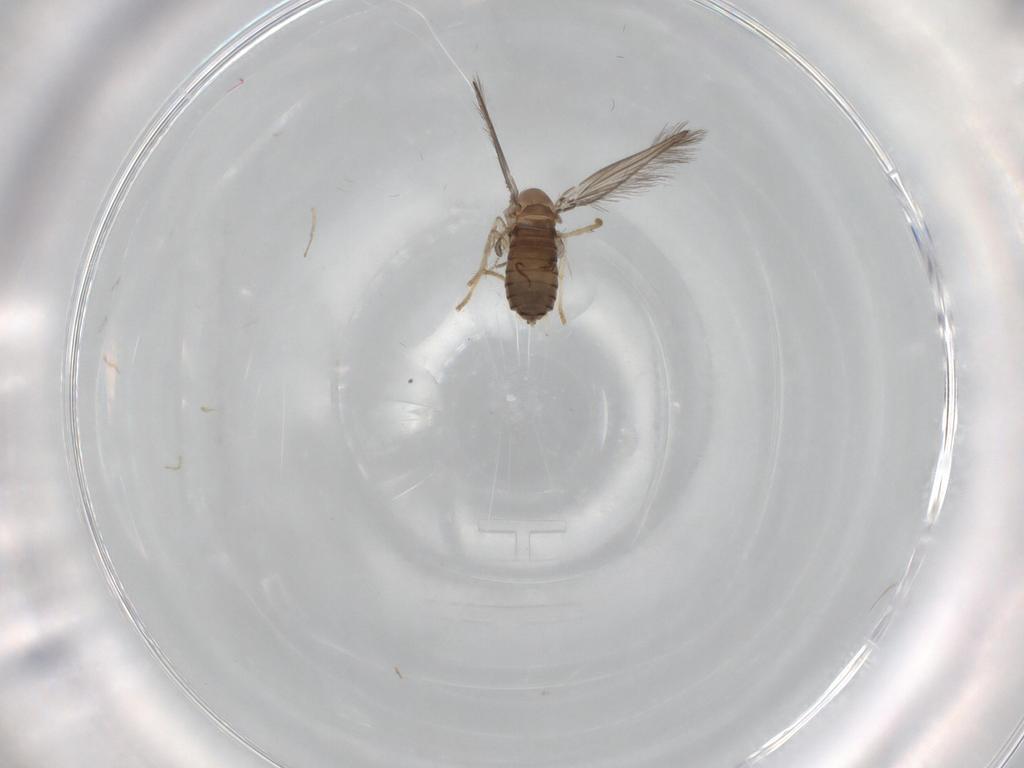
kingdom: Animalia
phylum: Arthropoda
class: Insecta
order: Diptera
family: Psychodidae
